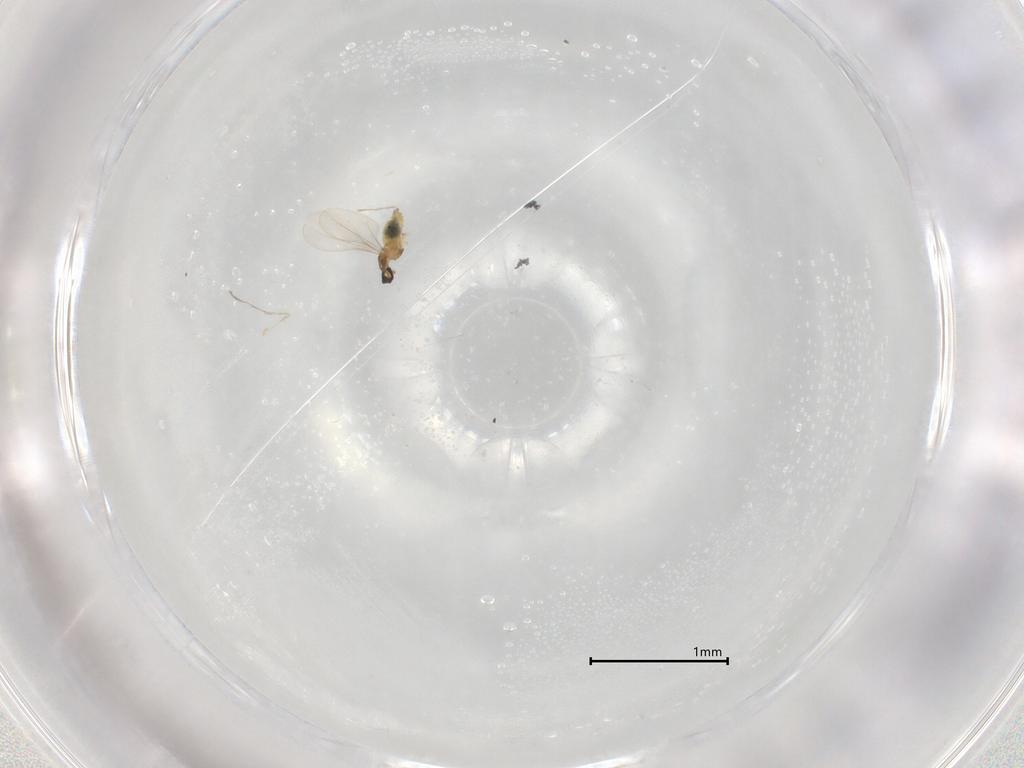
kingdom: Animalia
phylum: Arthropoda
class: Insecta
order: Diptera
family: Cecidomyiidae
